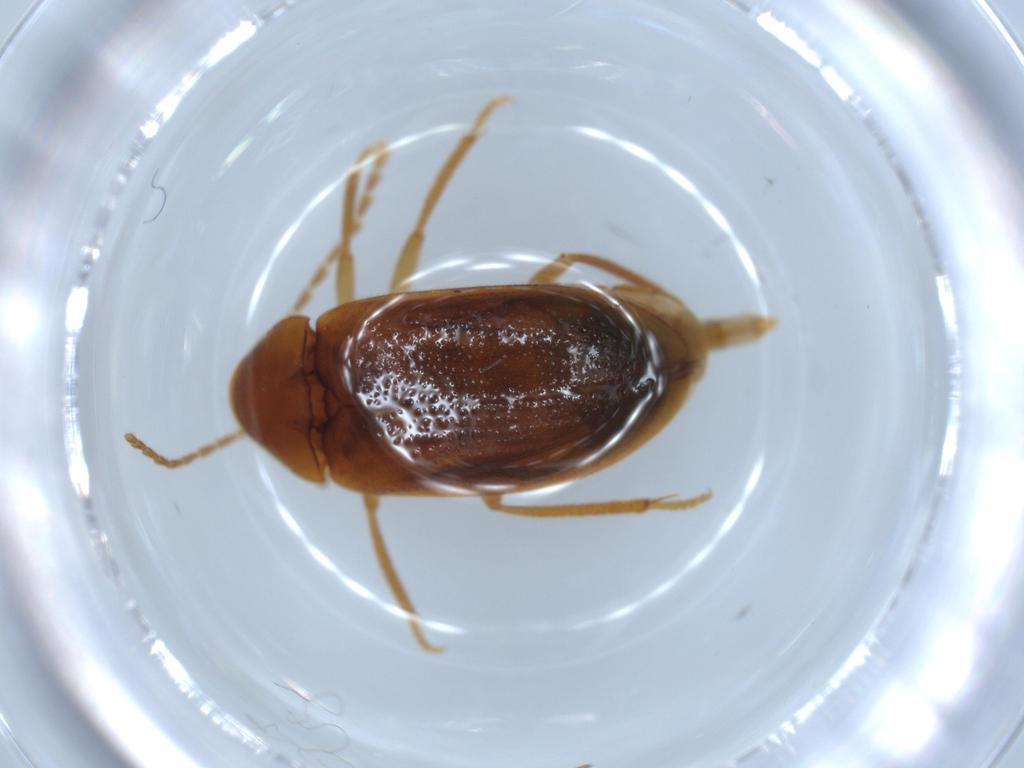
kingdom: Animalia
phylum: Arthropoda
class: Insecta
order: Coleoptera
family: Ptilodactylidae
